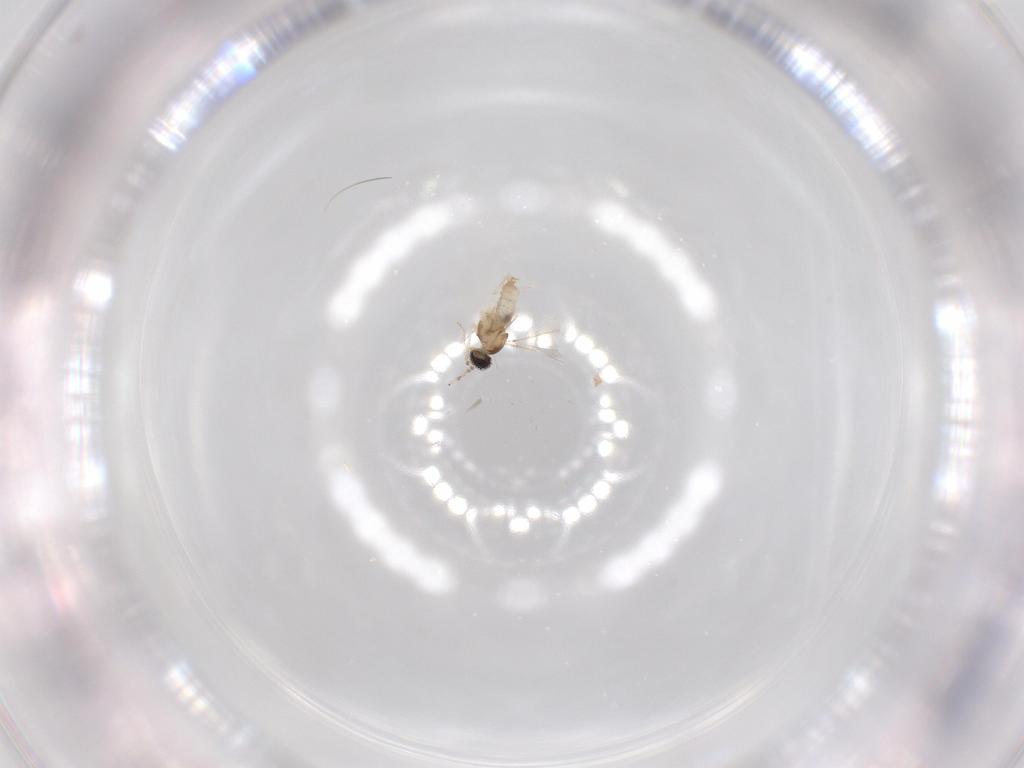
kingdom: Animalia
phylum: Arthropoda
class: Insecta
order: Diptera
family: Cecidomyiidae
